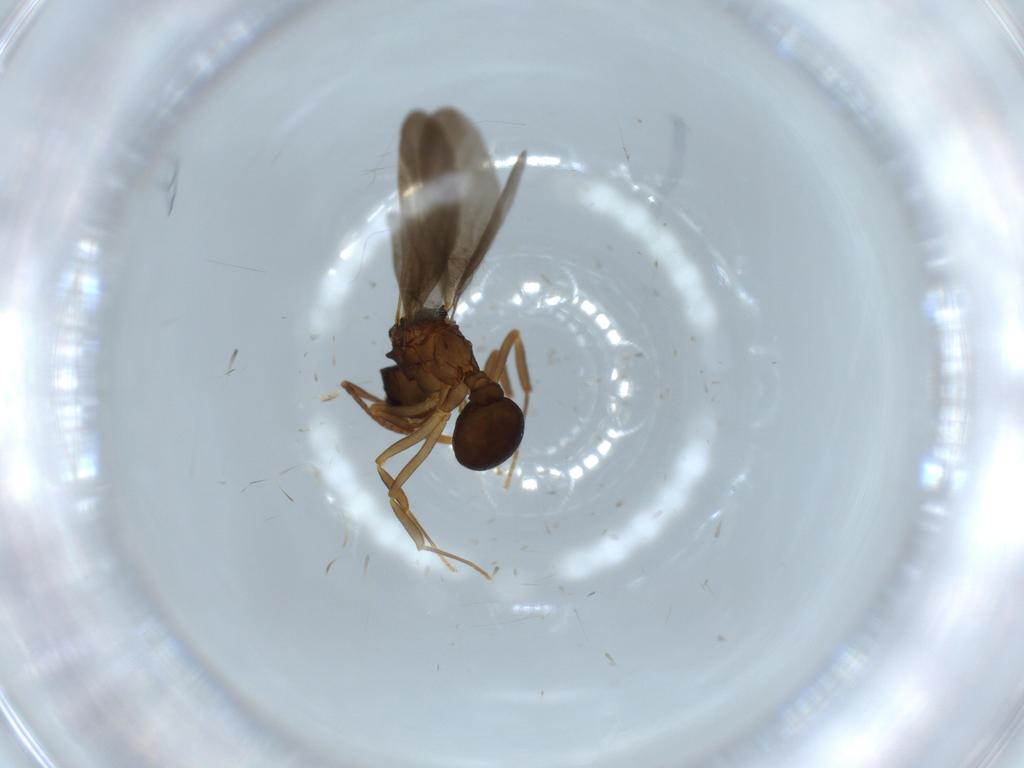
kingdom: Animalia
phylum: Arthropoda
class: Insecta
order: Hymenoptera
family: Formicidae
